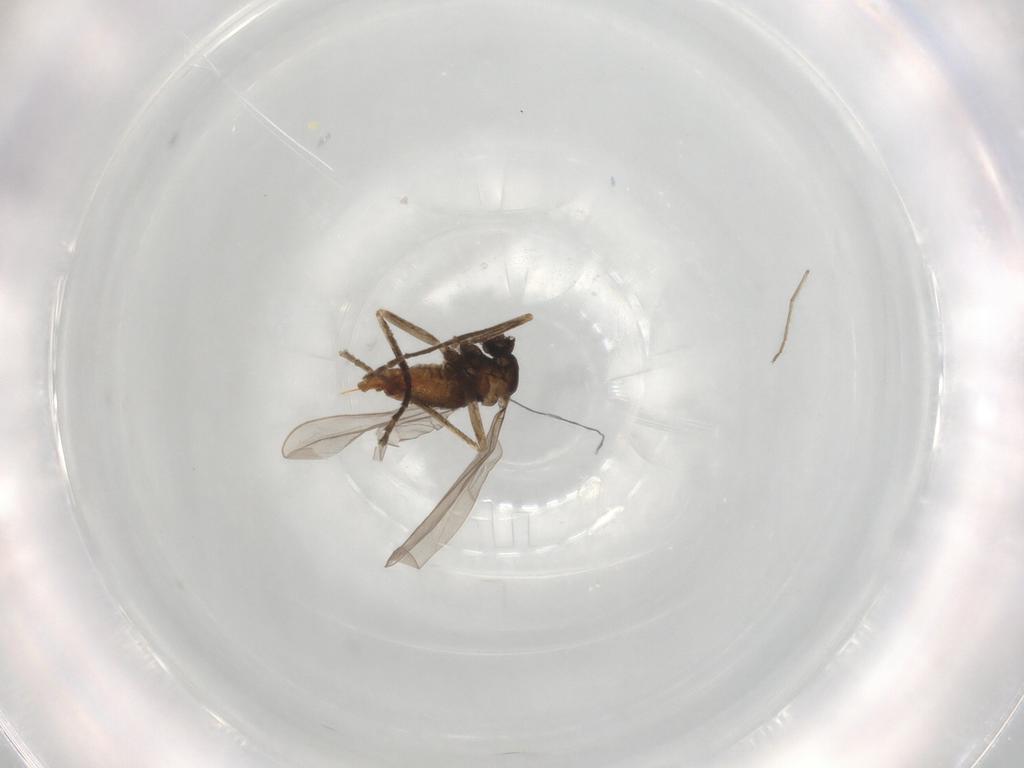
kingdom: Animalia
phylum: Arthropoda
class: Insecta
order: Diptera
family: Cecidomyiidae
